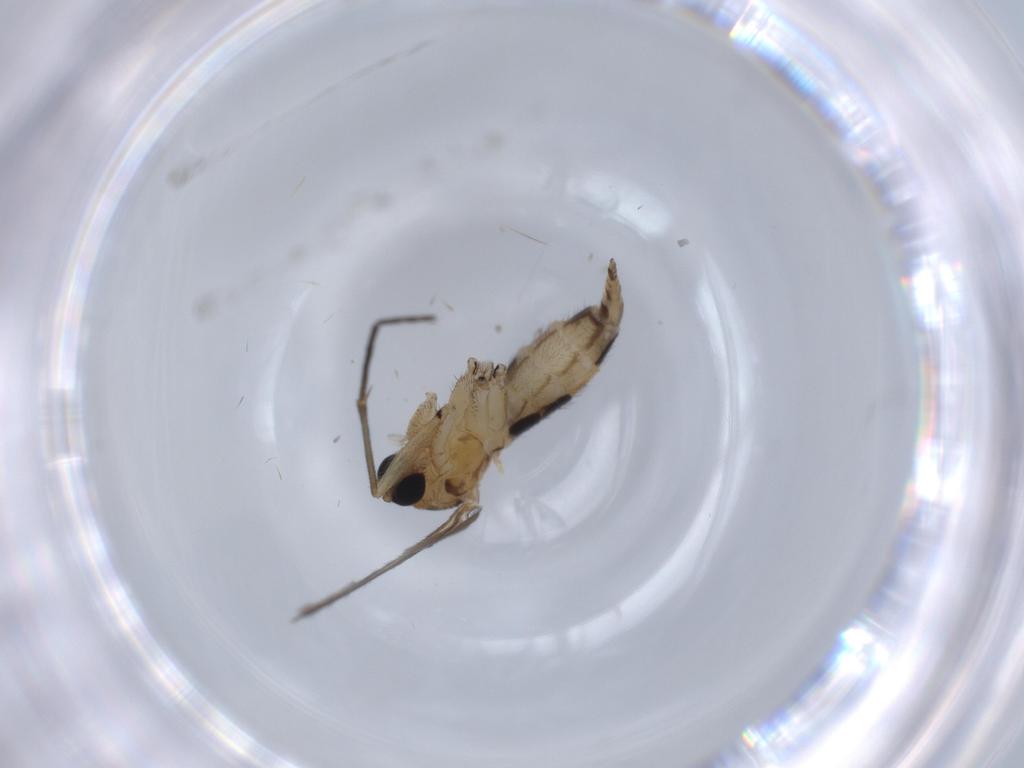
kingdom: Animalia
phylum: Arthropoda
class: Insecta
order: Diptera
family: Sciaridae
